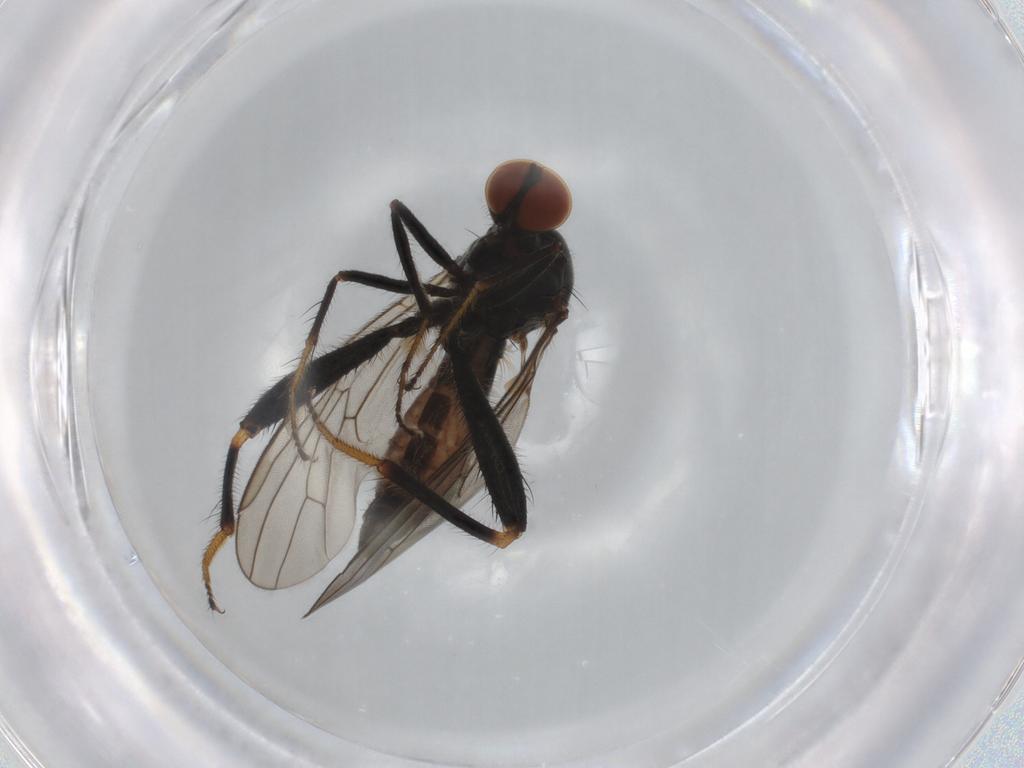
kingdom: Animalia
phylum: Arthropoda
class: Insecta
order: Diptera
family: Hybotidae
